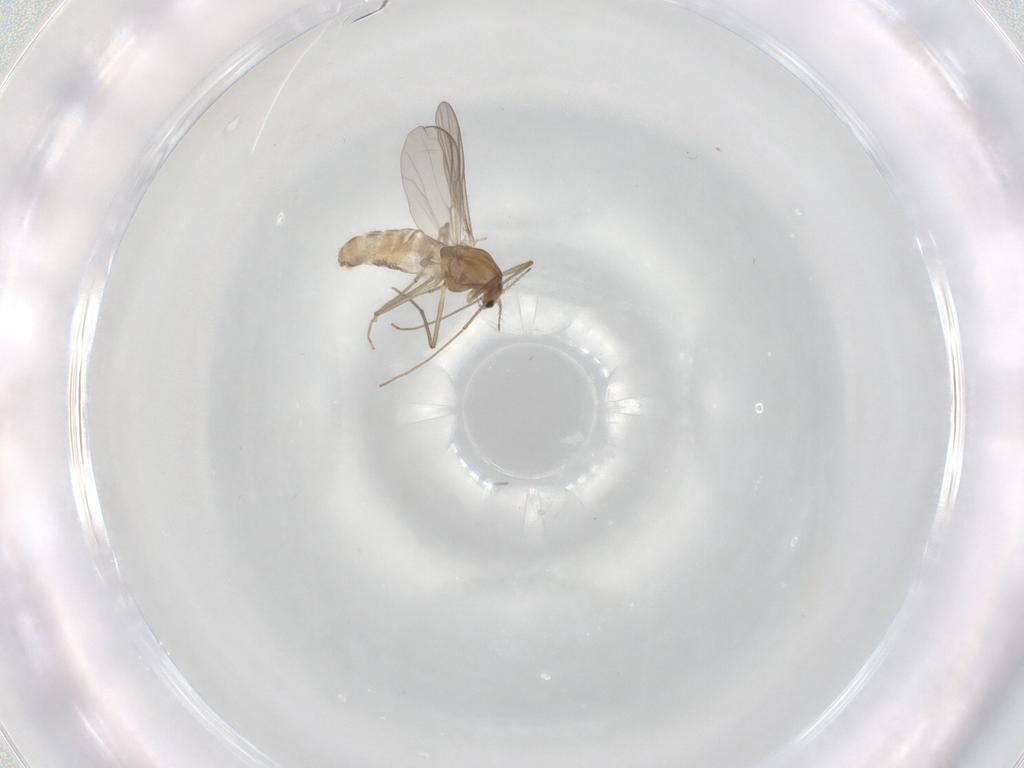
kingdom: Animalia
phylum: Arthropoda
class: Insecta
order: Diptera
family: Chironomidae
